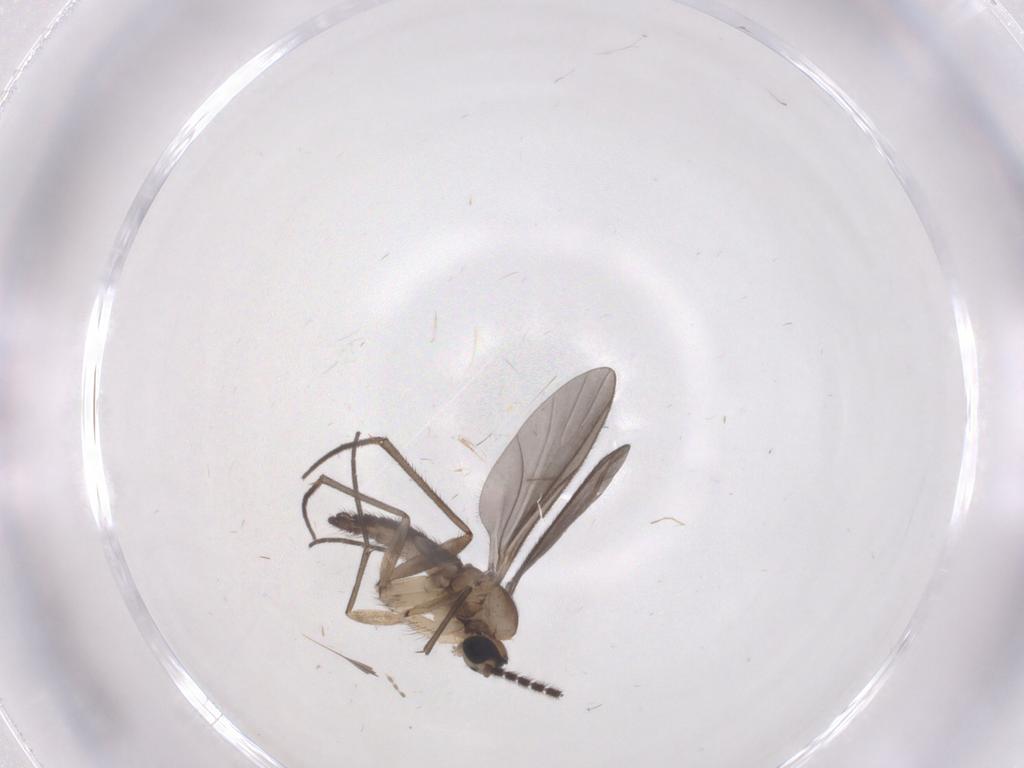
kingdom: Animalia
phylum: Arthropoda
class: Insecta
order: Diptera
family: Sciaridae
